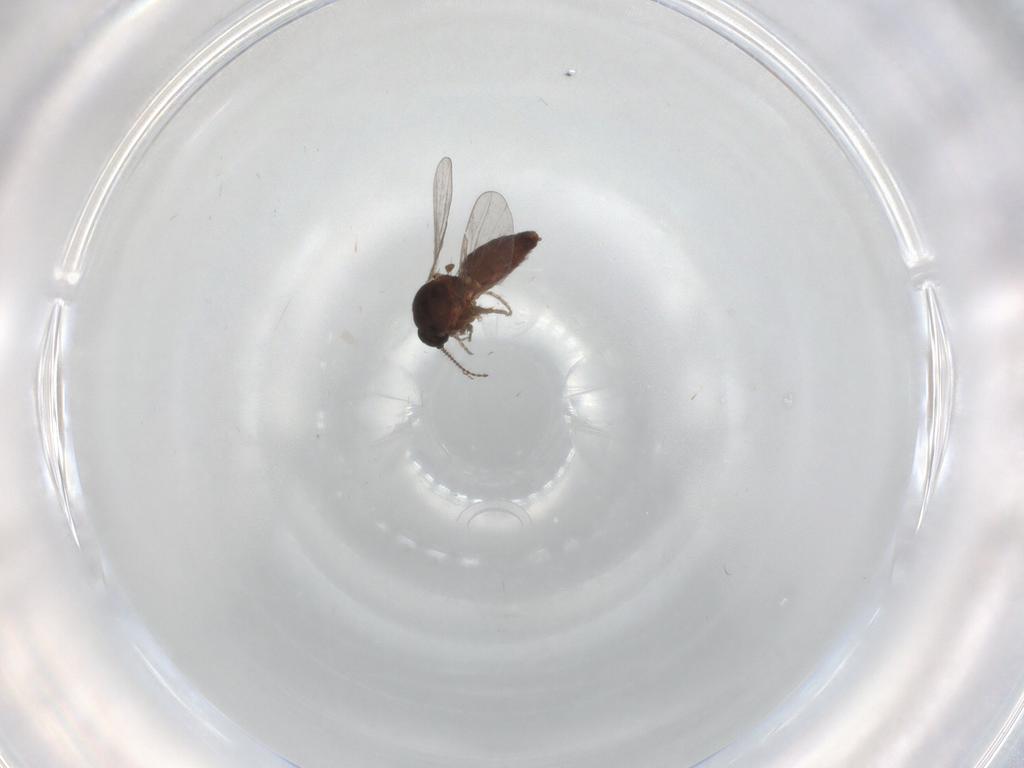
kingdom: Animalia
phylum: Arthropoda
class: Insecta
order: Diptera
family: Ceratopogonidae
